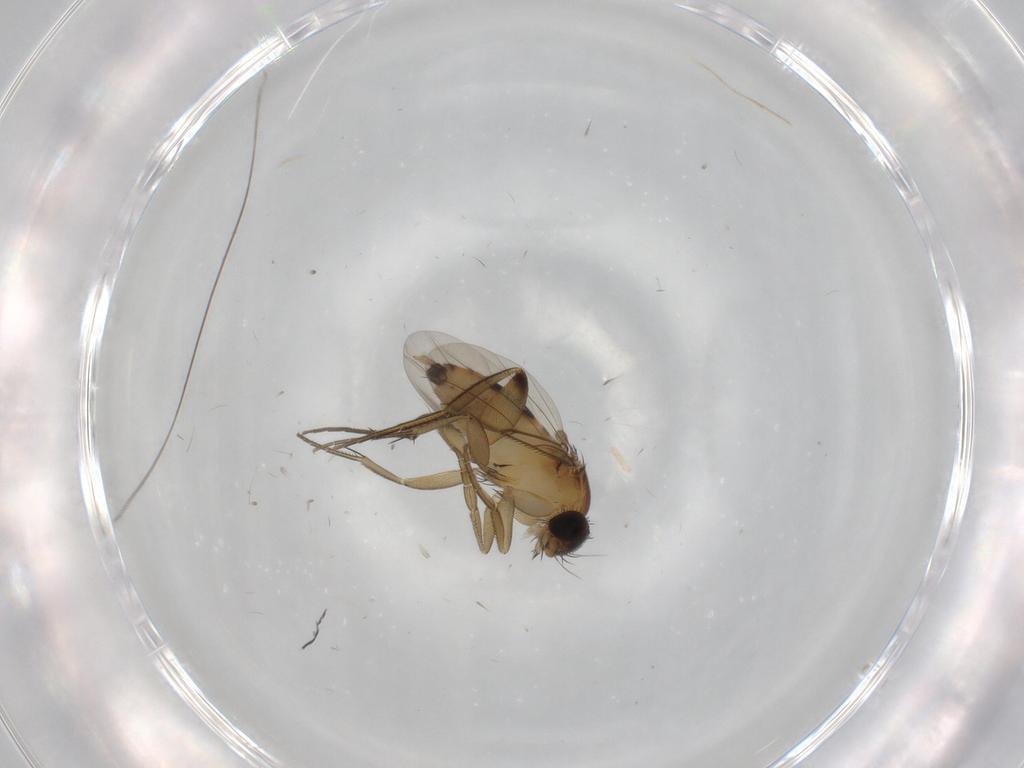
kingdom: Animalia
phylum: Arthropoda
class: Insecta
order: Diptera
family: Phoridae
